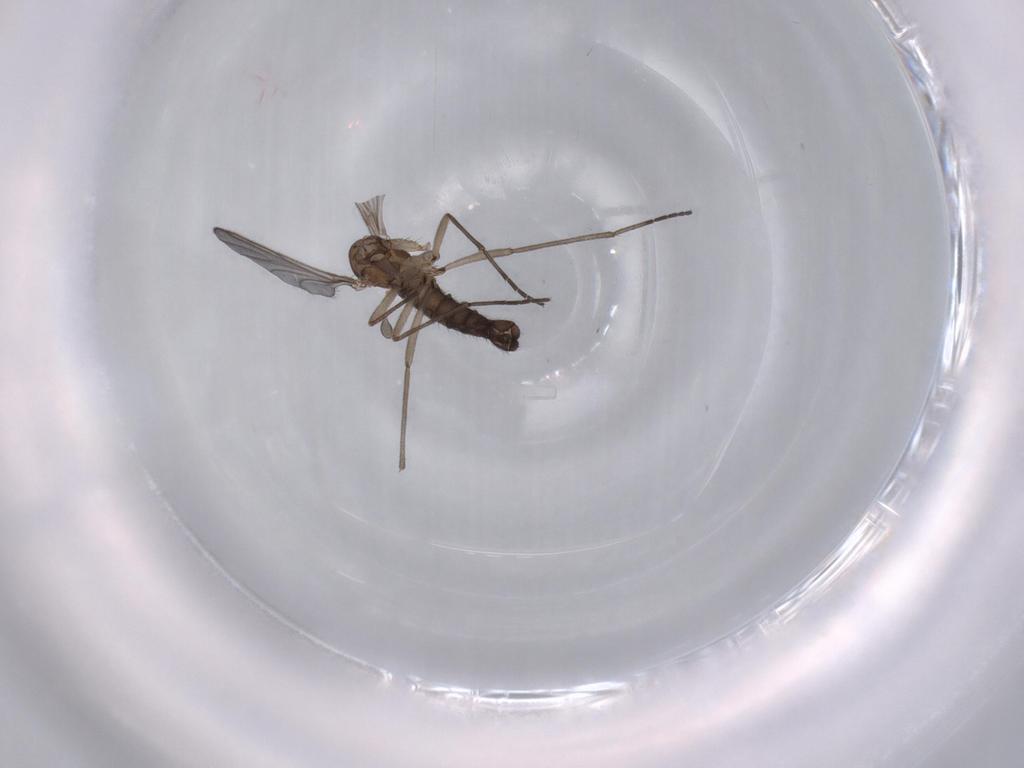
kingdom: Animalia
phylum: Arthropoda
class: Insecta
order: Diptera
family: Sciaridae
